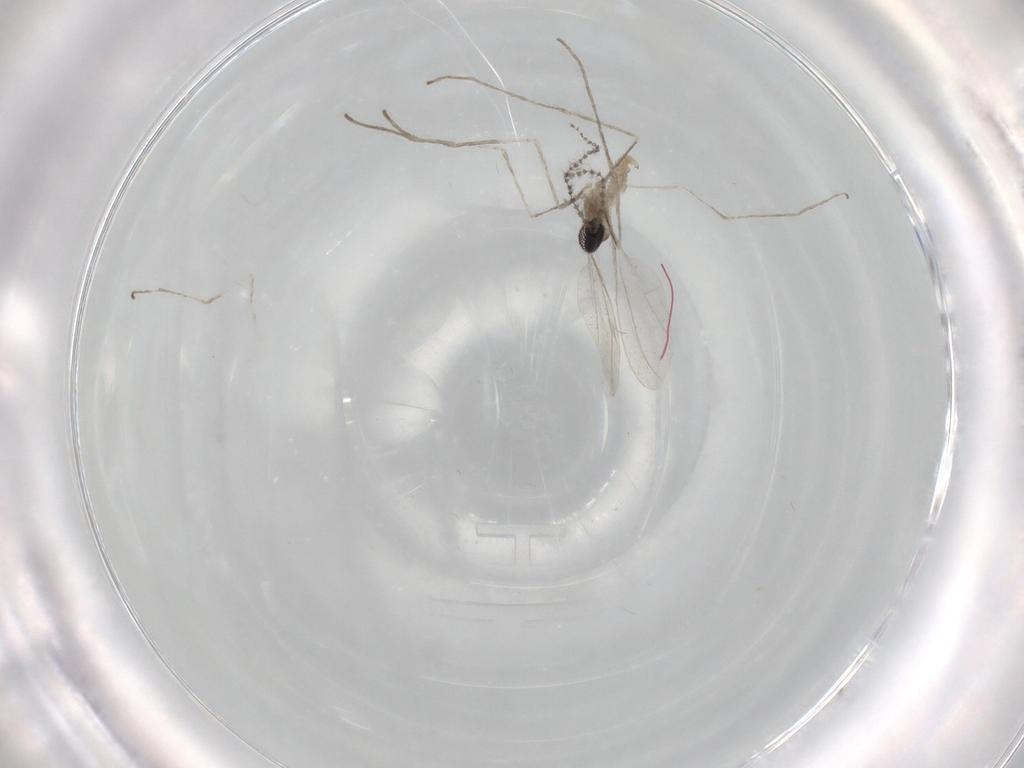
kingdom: Animalia
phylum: Arthropoda
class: Insecta
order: Diptera
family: Cecidomyiidae
